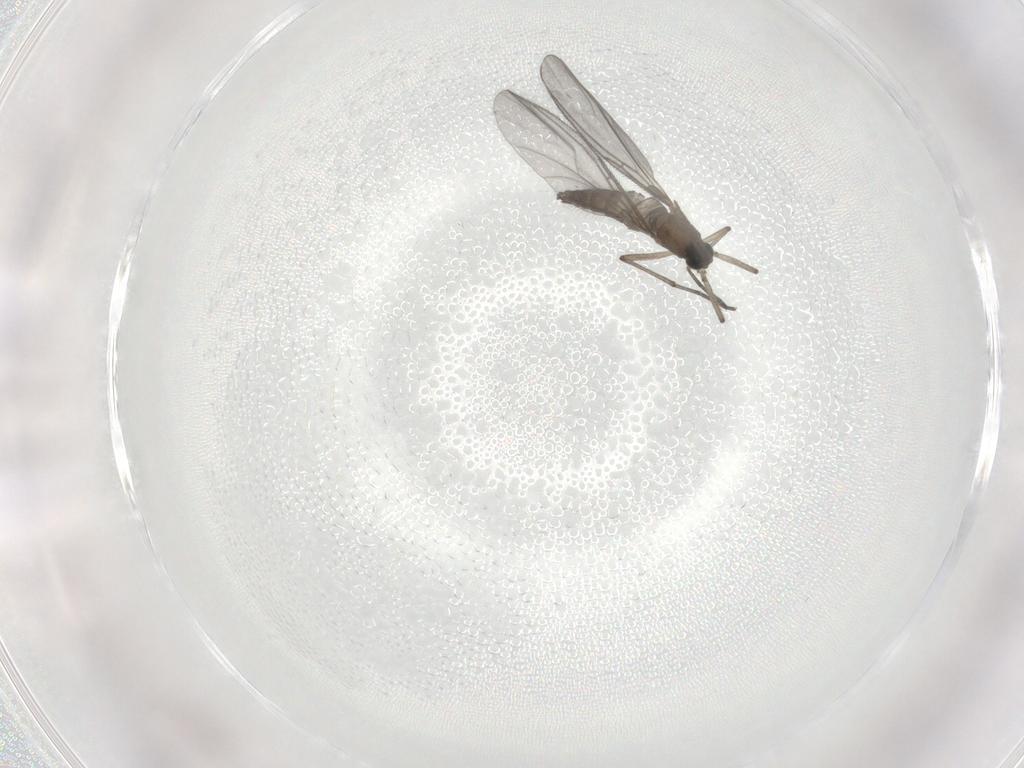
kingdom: Animalia
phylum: Arthropoda
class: Insecta
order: Diptera
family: Sciaridae
